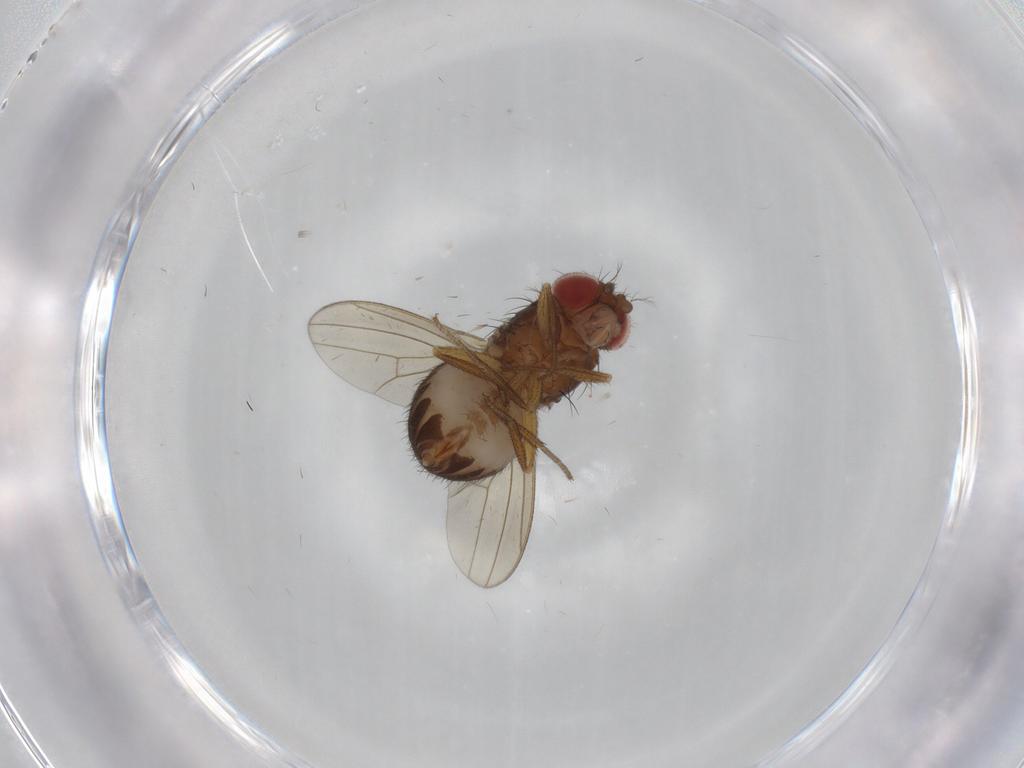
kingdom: Animalia
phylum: Arthropoda
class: Insecta
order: Diptera
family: Drosophilidae
